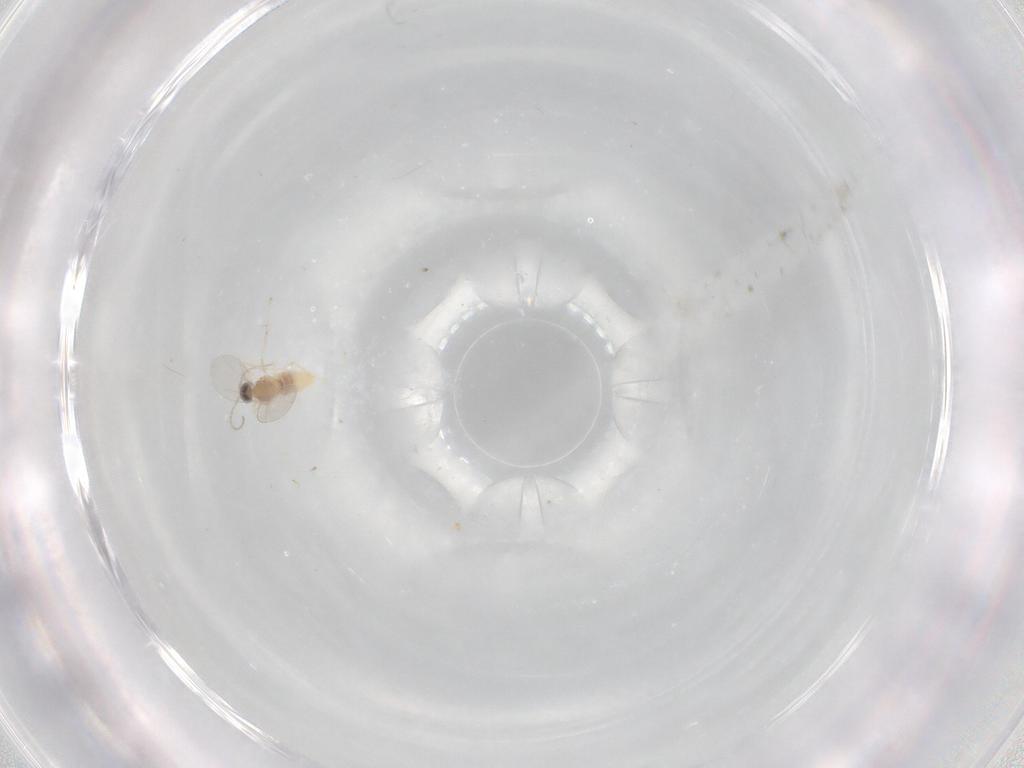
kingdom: Animalia
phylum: Arthropoda
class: Insecta
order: Diptera
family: Cecidomyiidae
